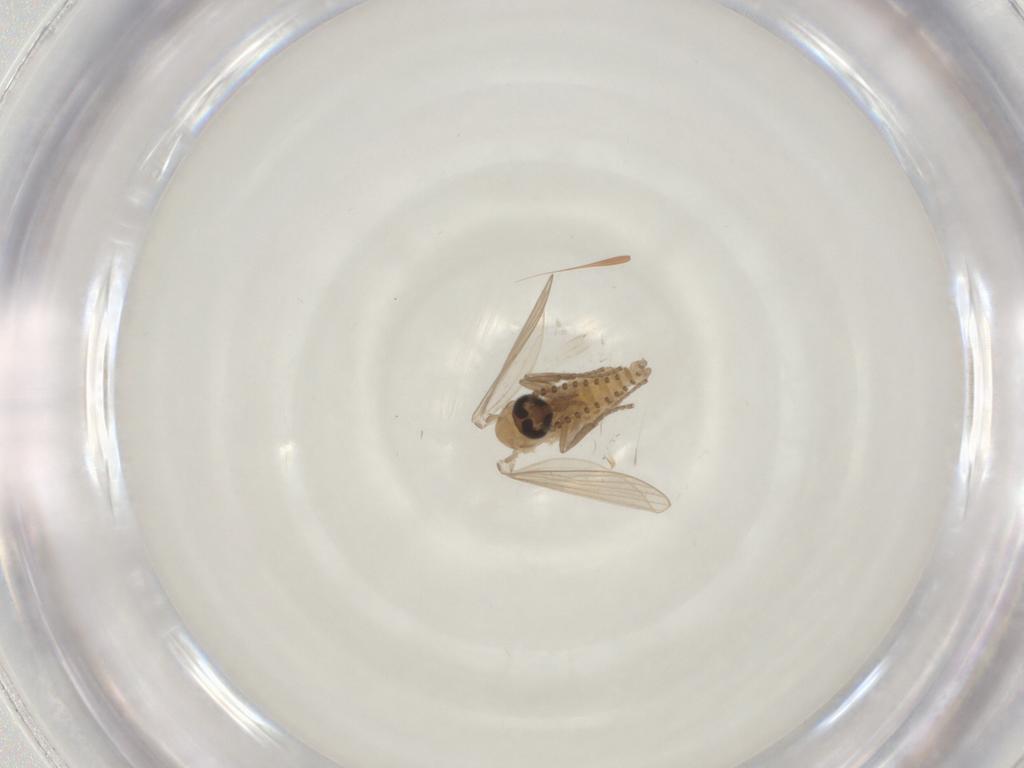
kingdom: Animalia
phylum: Arthropoda
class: Insecta
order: Diptera
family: Psychodidae
